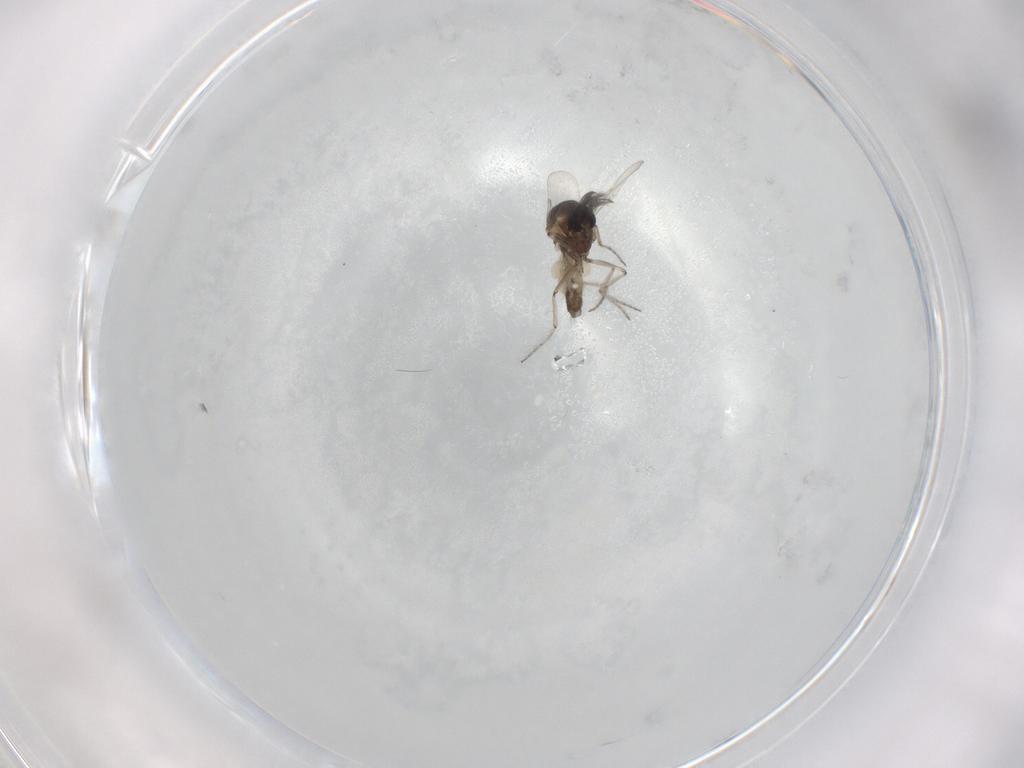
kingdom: Animalia
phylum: Arthropoda
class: Insecta
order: Diptera
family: Ceratopogonidae
